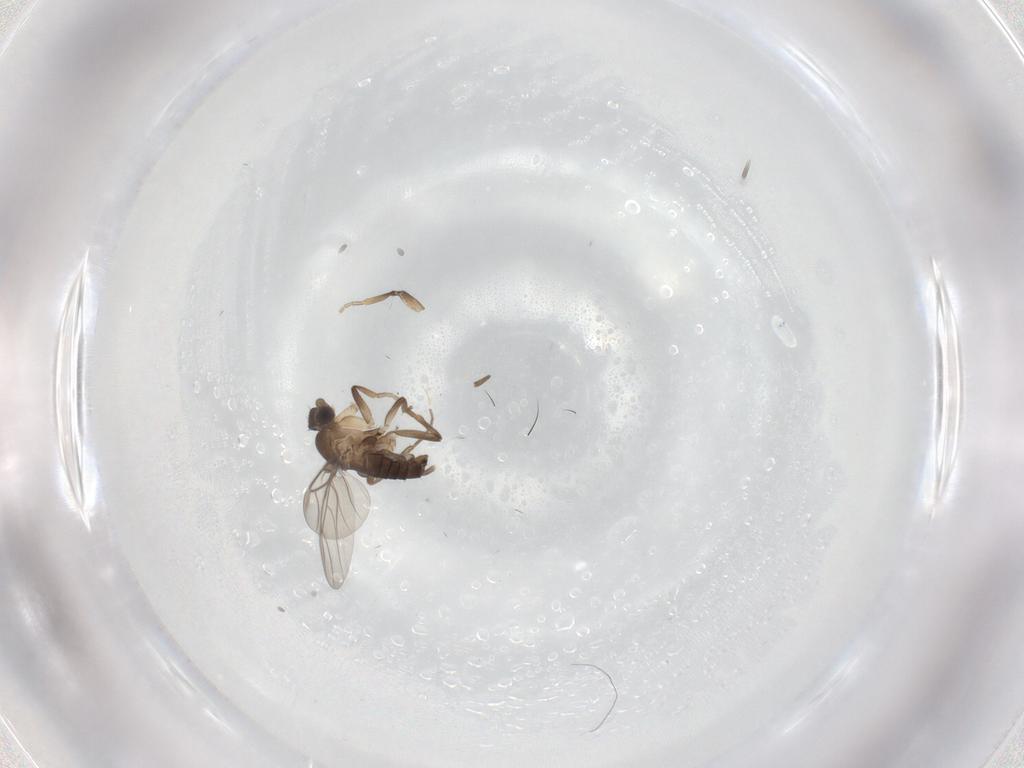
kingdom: Animalia
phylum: Arthropoda
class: Insecta
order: Diptera
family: Phoridae
